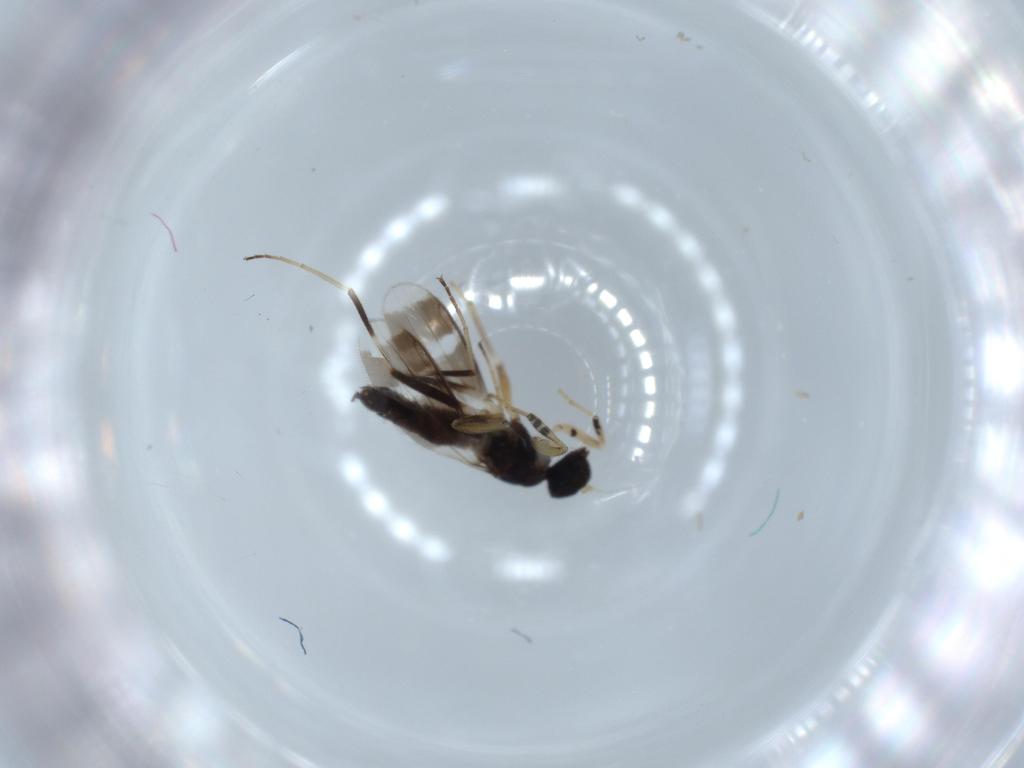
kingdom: Animalia
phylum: Arthropoda
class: Insecta
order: Diptera
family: Hybotidae
